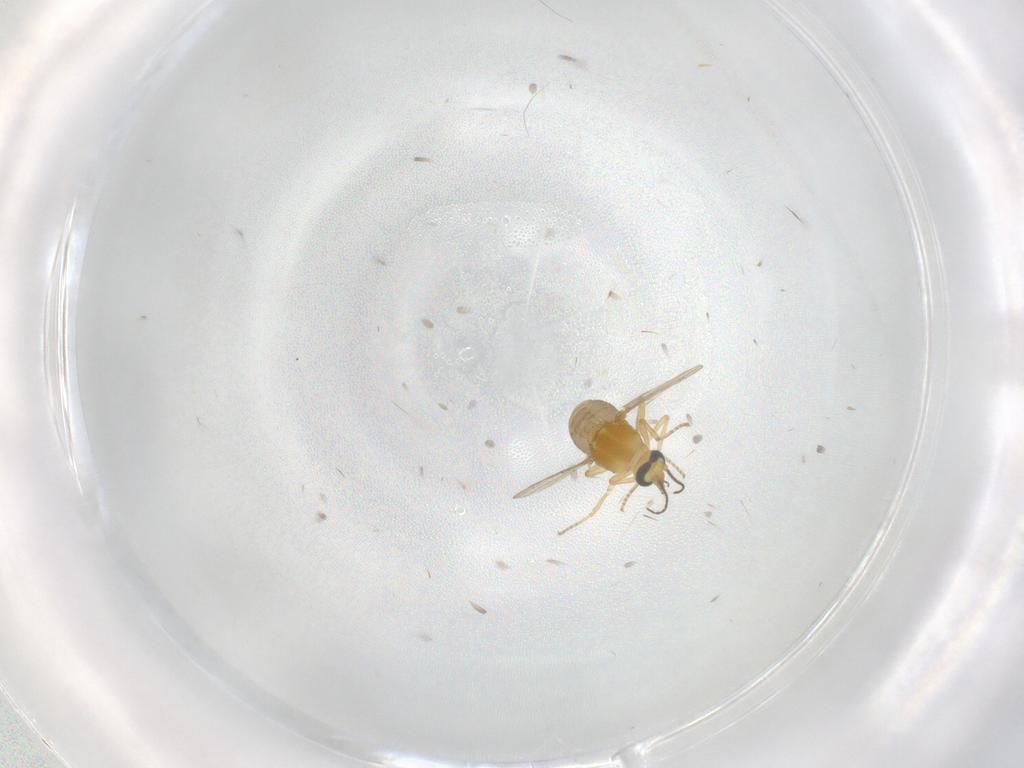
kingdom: Animalia
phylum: Arthropoda
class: Insecta
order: Diptera
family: Ceratopogonidae
